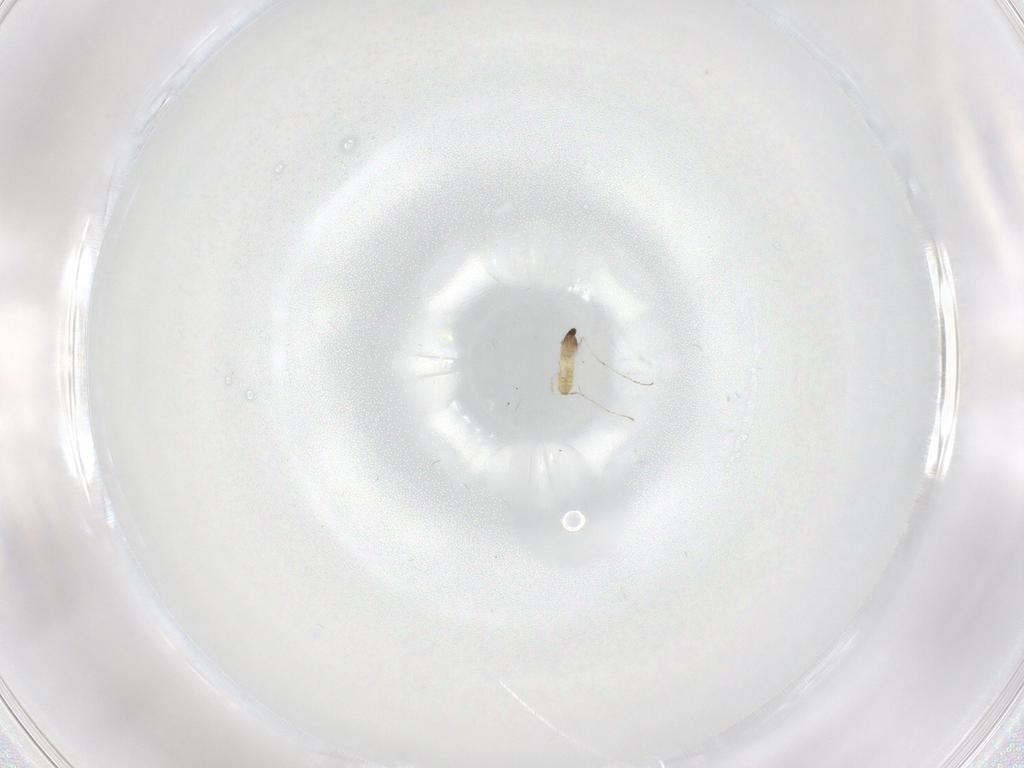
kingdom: Animalia
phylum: Arthropoda
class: Insecta
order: Diptera
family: Cecidomyiidae
